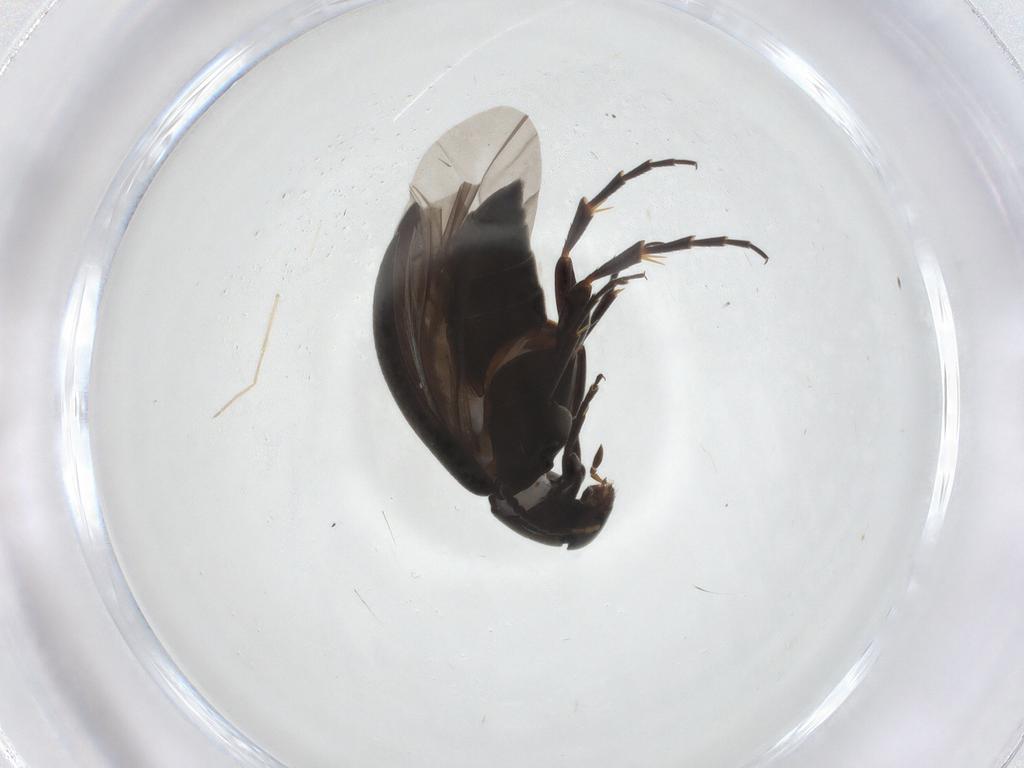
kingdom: Animalia
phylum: Arthropoda
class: Insecta
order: Coleoptera
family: Scraptiidae
